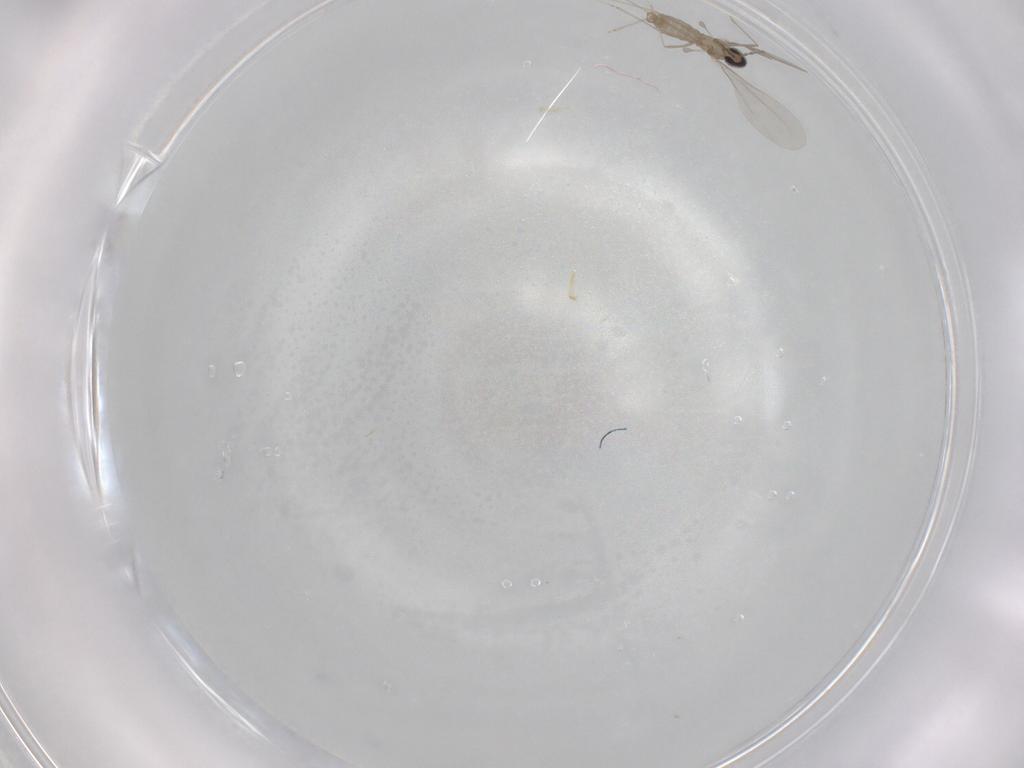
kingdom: Animalia
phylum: Arthropoda
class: Insecta
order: Diptera
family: Cecidomyiidae
